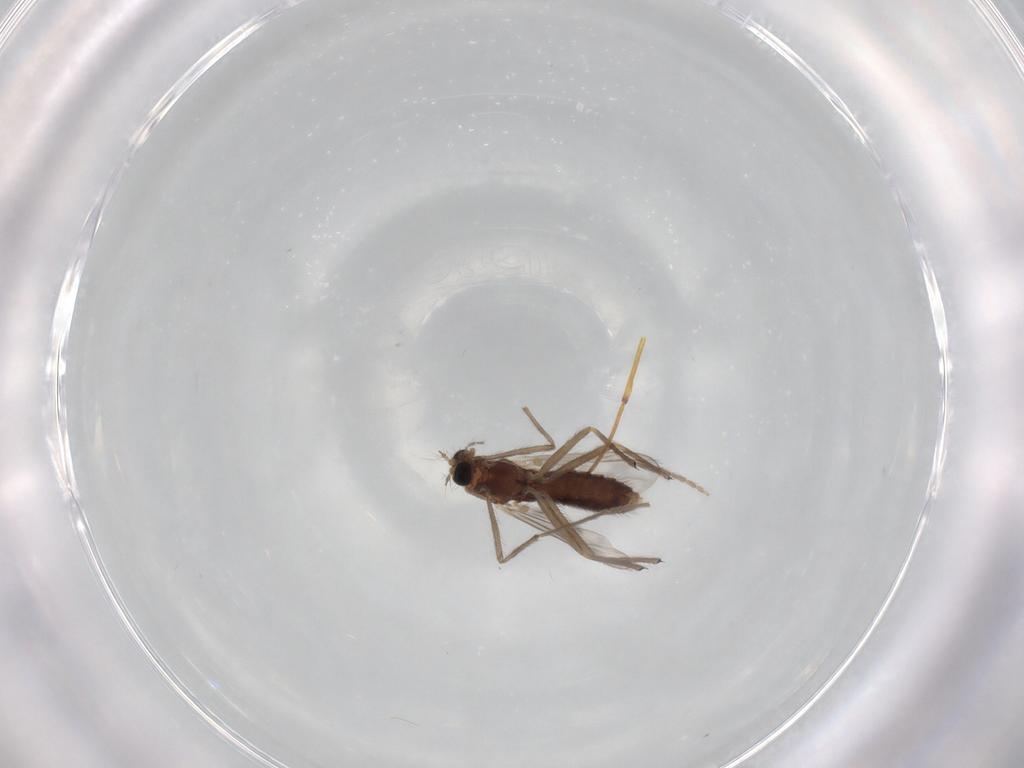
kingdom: Animalia
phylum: Arthropoda
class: Insecta
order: Diptera
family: Chironomidae
